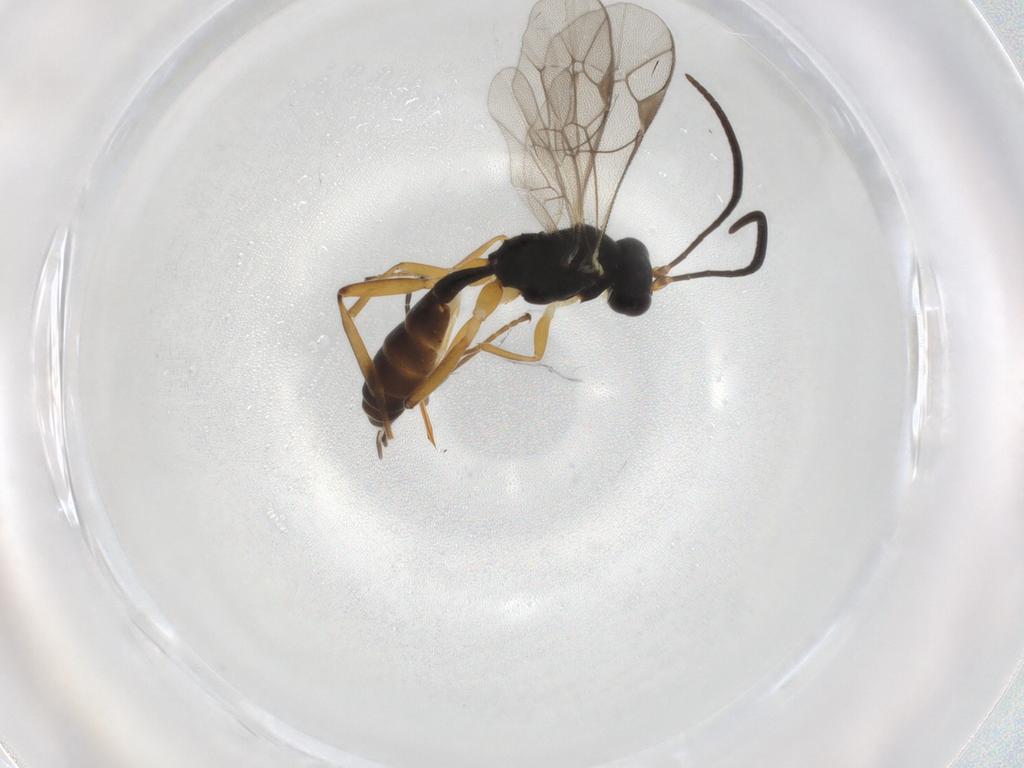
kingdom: Animalia
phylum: Arthropoda
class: Insecta
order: Hymenoptera
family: Ichneumonidae
